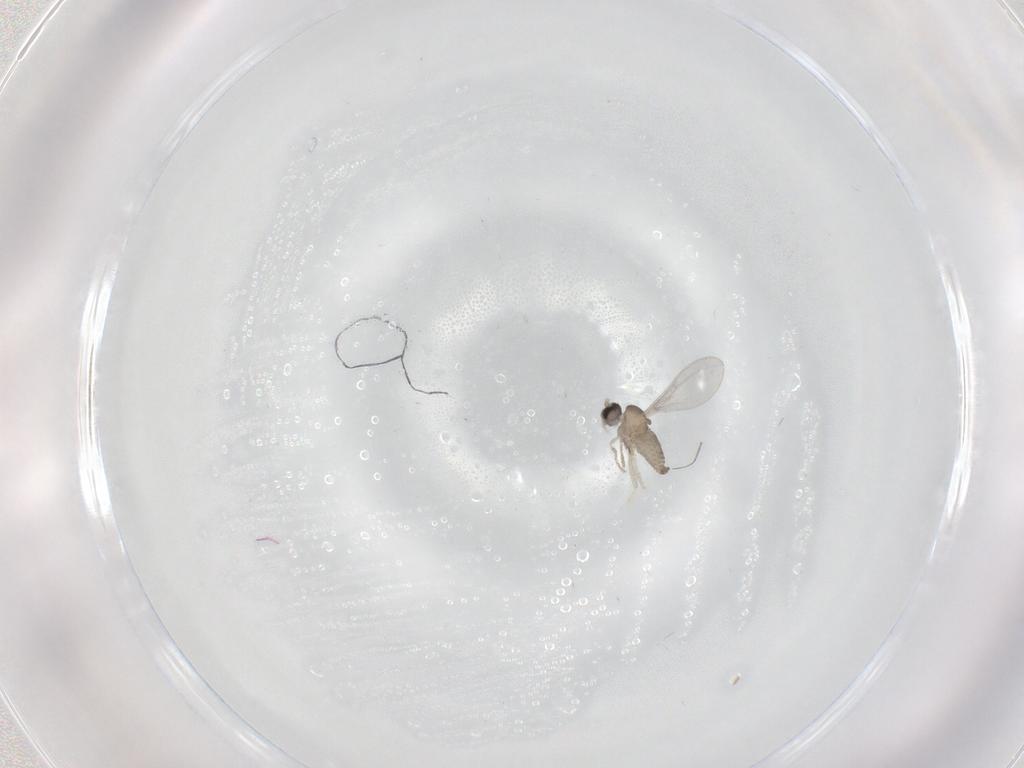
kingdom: Animalia
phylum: Arthropoda
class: Insecta
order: Diptera
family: Cecidomyiidae
